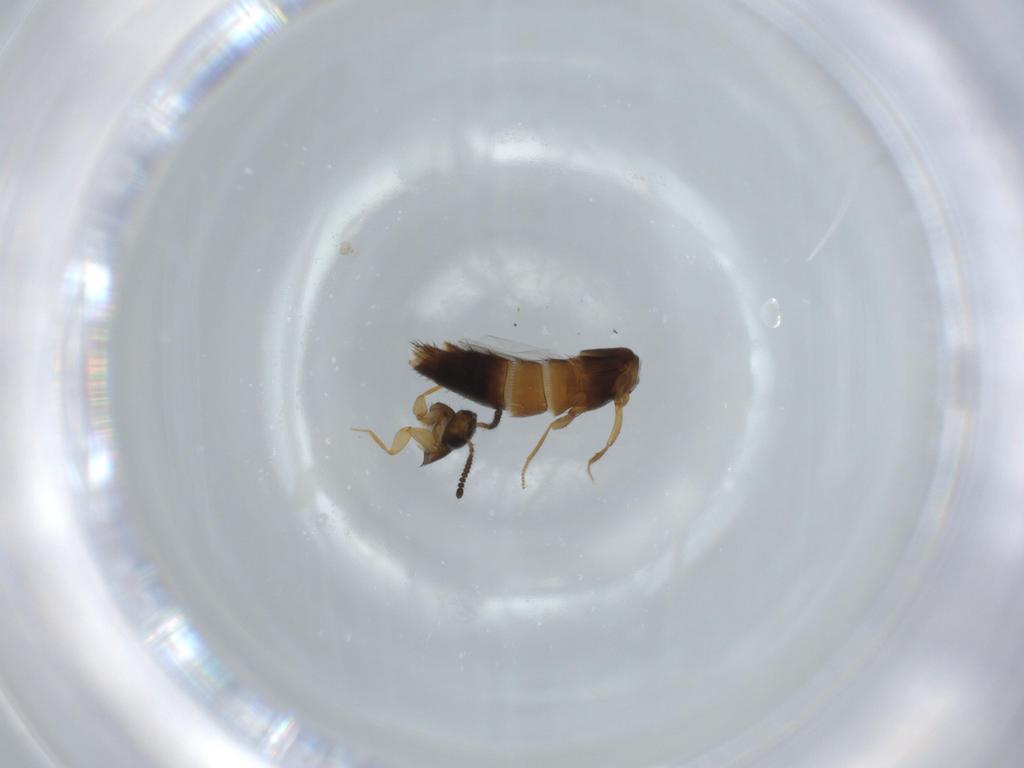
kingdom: Animalia
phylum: Arthropoda
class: Insecta
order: Coleoptera
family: Staphylinidae
